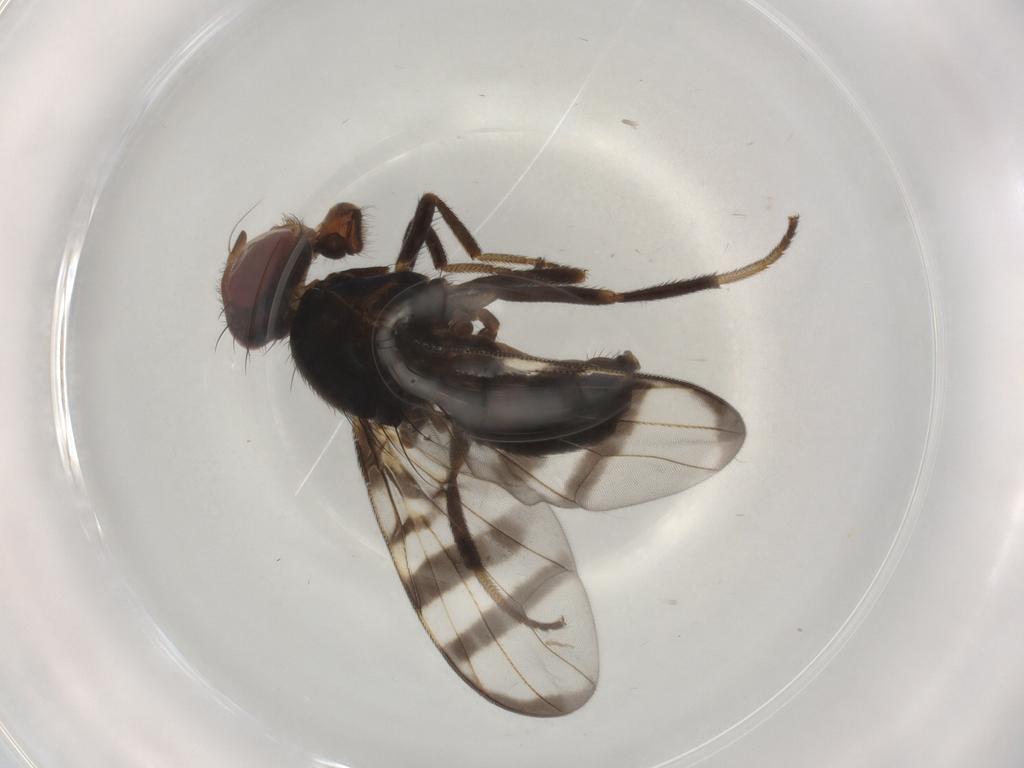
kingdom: Animalia
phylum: Arthropoda
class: Insecta
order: Diptera
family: Platystomatidae
